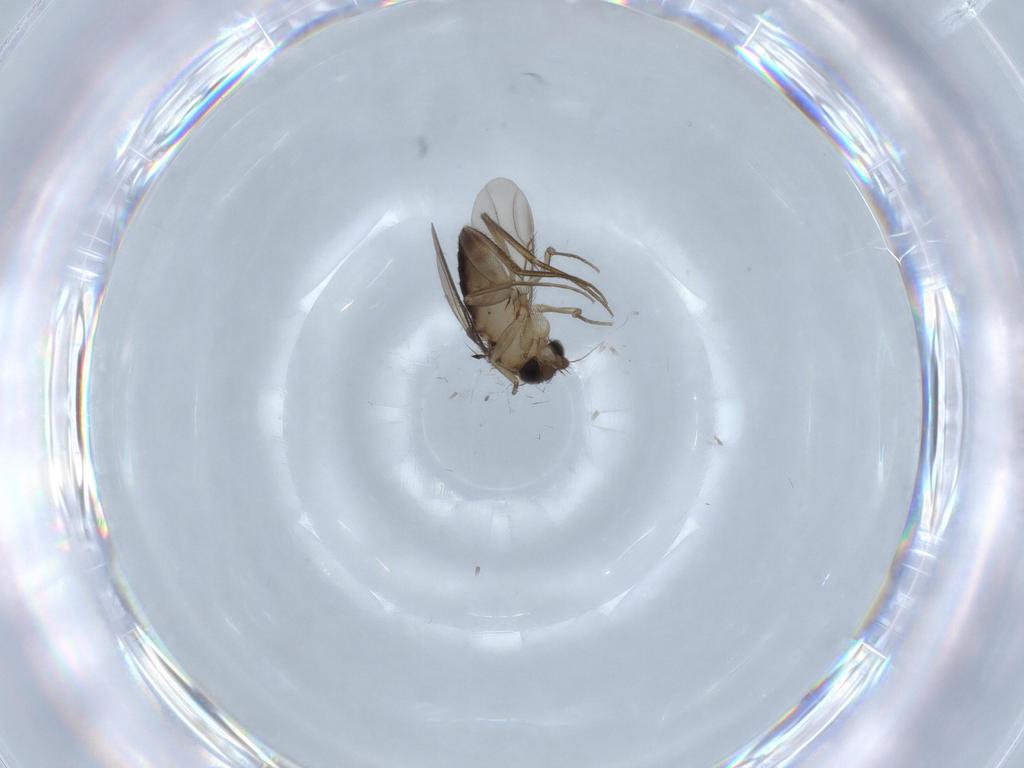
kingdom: Animalia
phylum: Arthropoda
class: Insecta
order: Diptera
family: Phoridae
